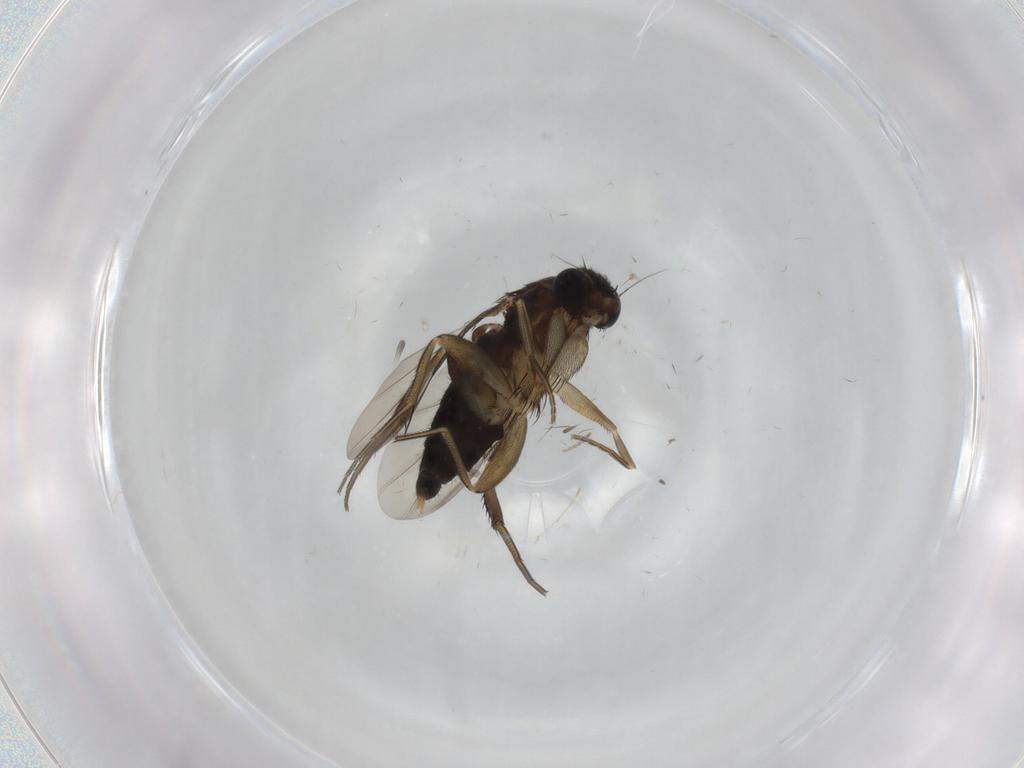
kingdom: Animalia
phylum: Arthropoda
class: Insecta
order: Diptera
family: Phoridae
